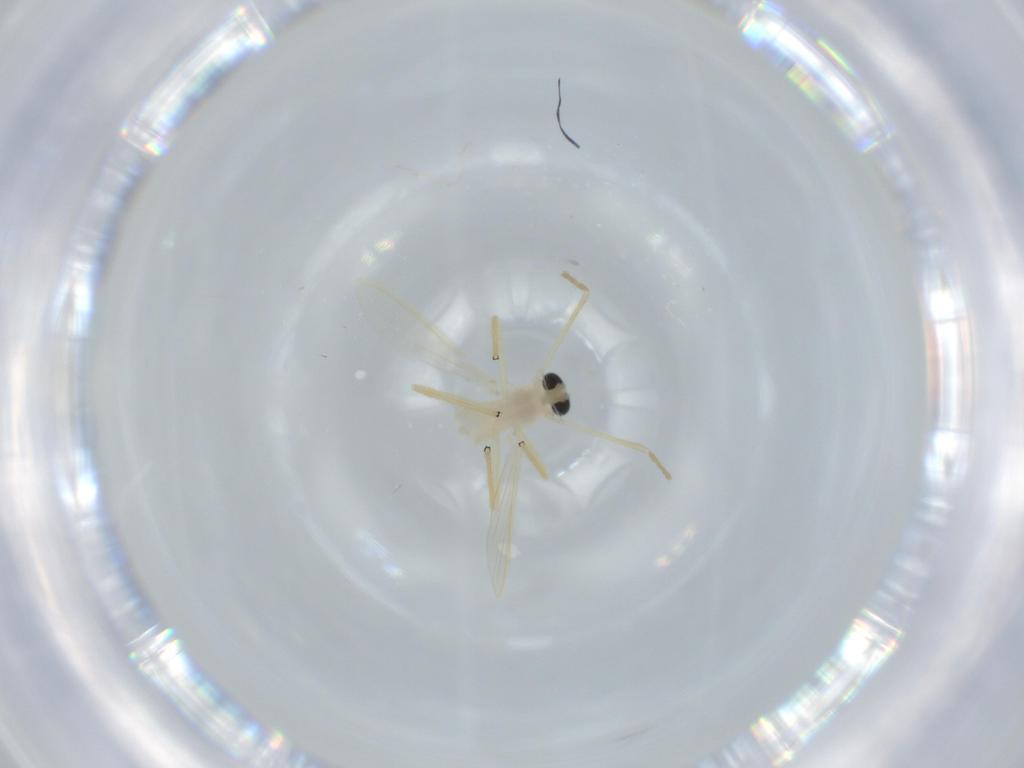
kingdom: Animalia
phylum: Arthropoda
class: Insecta
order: Diptera
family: Chironomidae
